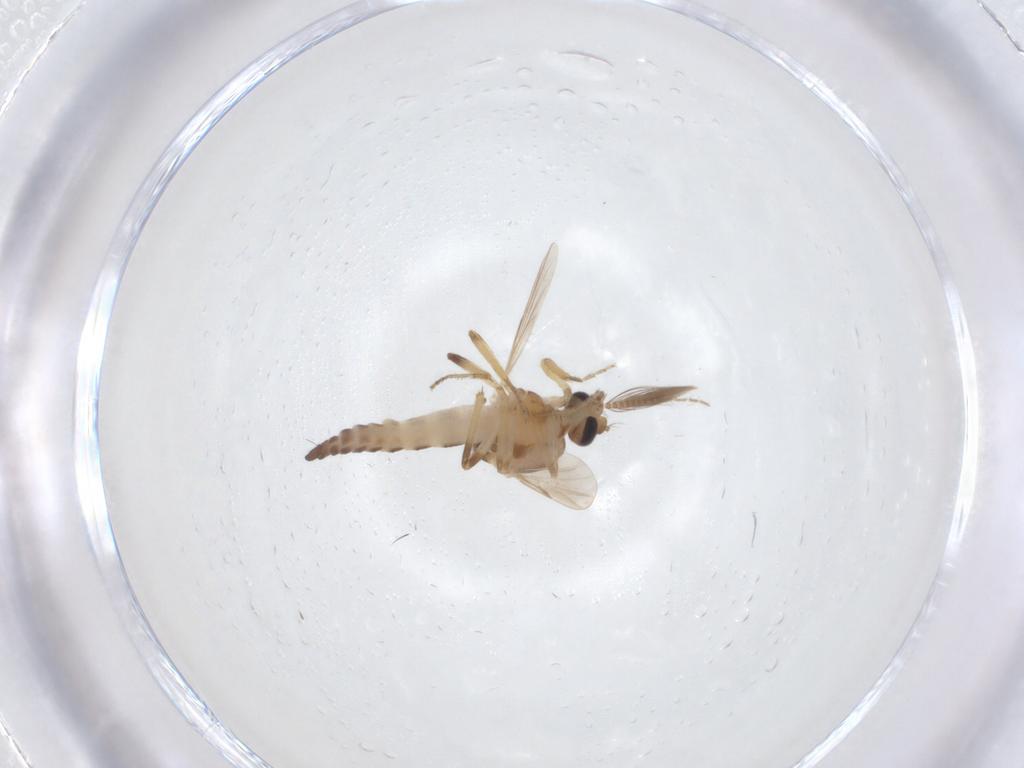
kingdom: Animalia
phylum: Arthropoda
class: Insecta
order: Diptera
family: Ceratopogonidae
